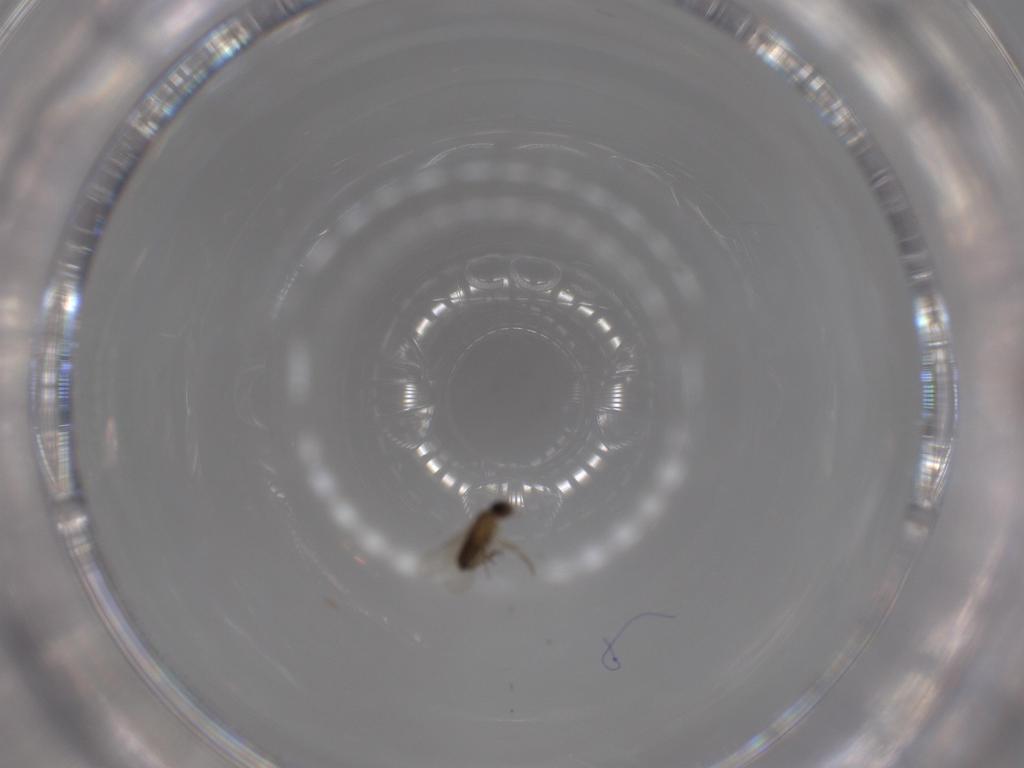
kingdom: Animalia
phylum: Arthropoda
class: Insecta
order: Diptera
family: Phoridae
